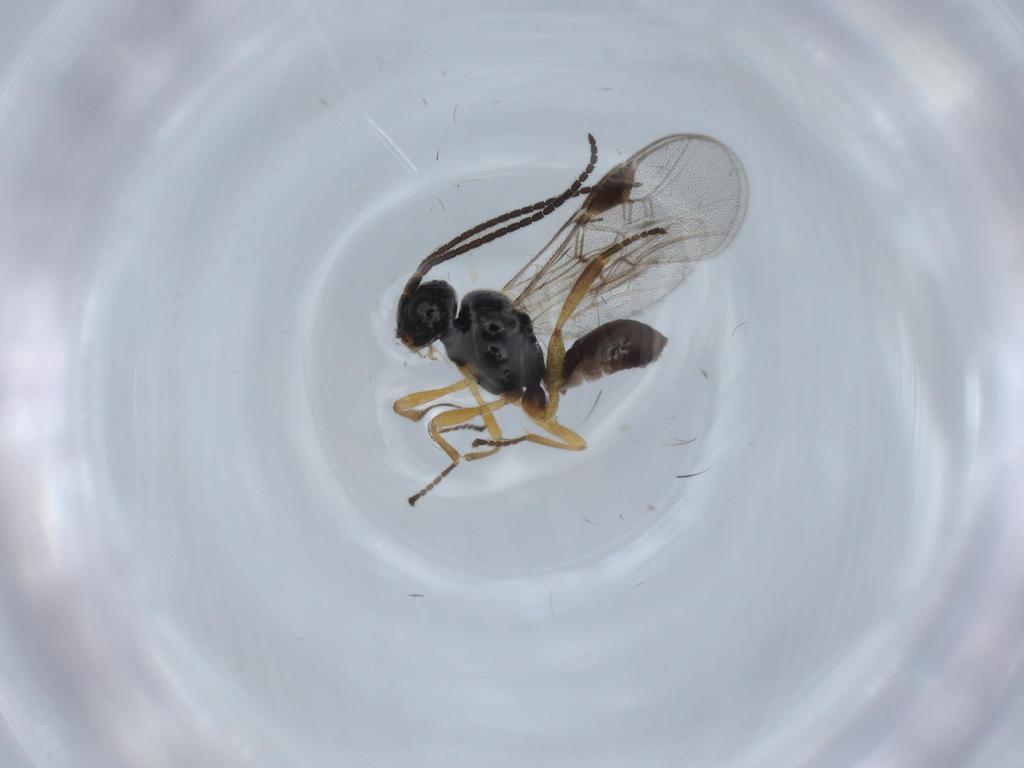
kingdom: Animalia
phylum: Arthropoda
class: Insecta
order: Hymenoptera
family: Braconidae
